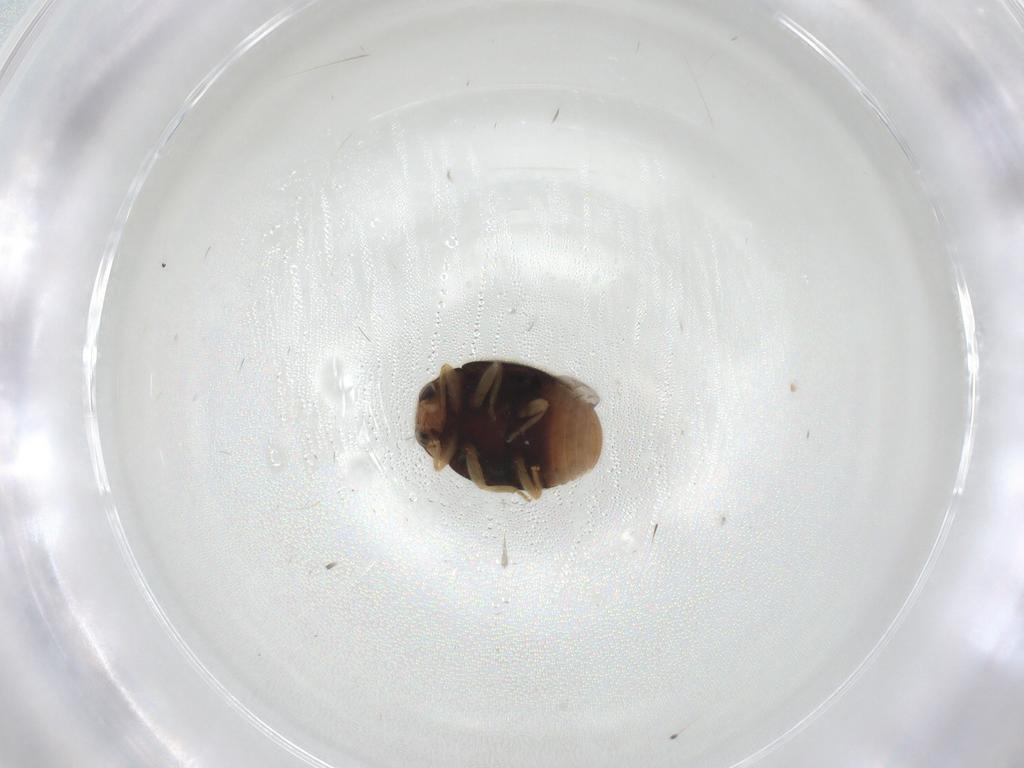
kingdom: Animalia
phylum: Arthropoda
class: Insecta
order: Coleoptera
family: Coccinellidae
